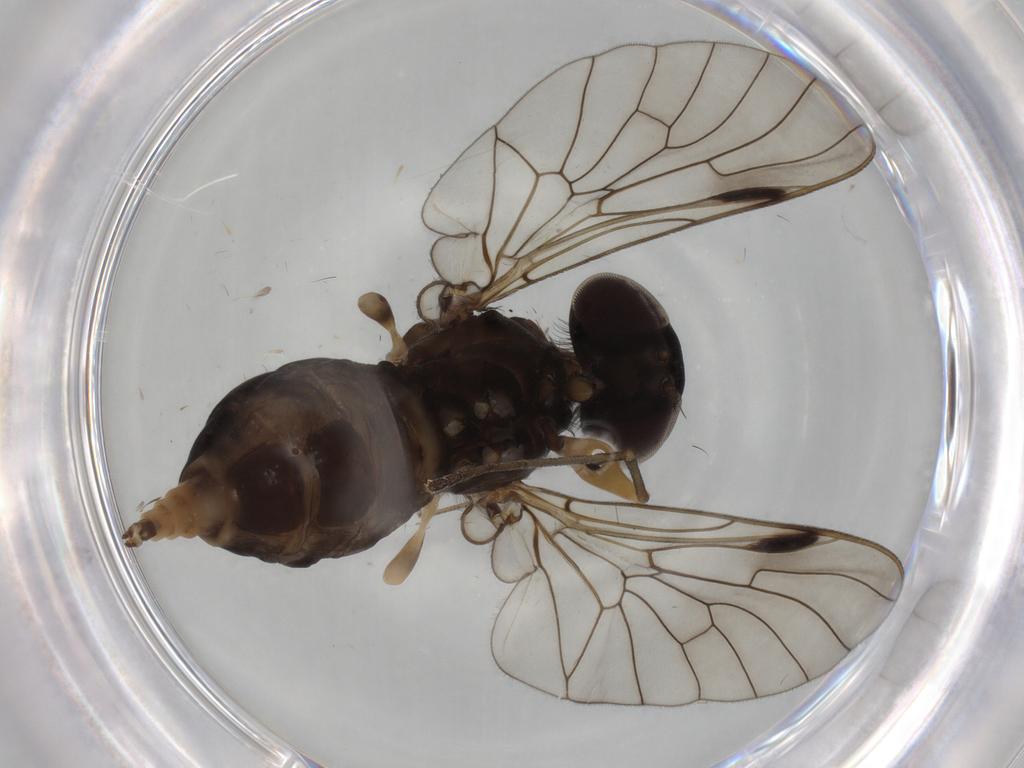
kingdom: Animalia
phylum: Arthropoda
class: Insecta
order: Diptera
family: Rhagionidae
